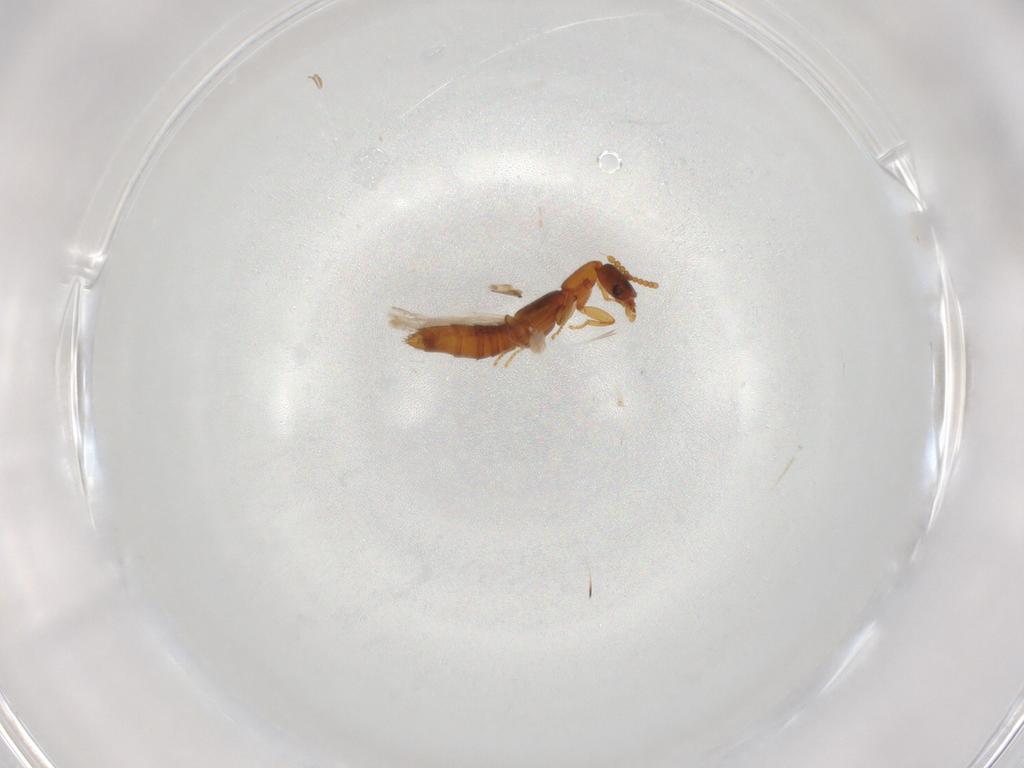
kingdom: Animalia
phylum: Arthropoda
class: Insecta
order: Coleoptera
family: Staphylinidae
